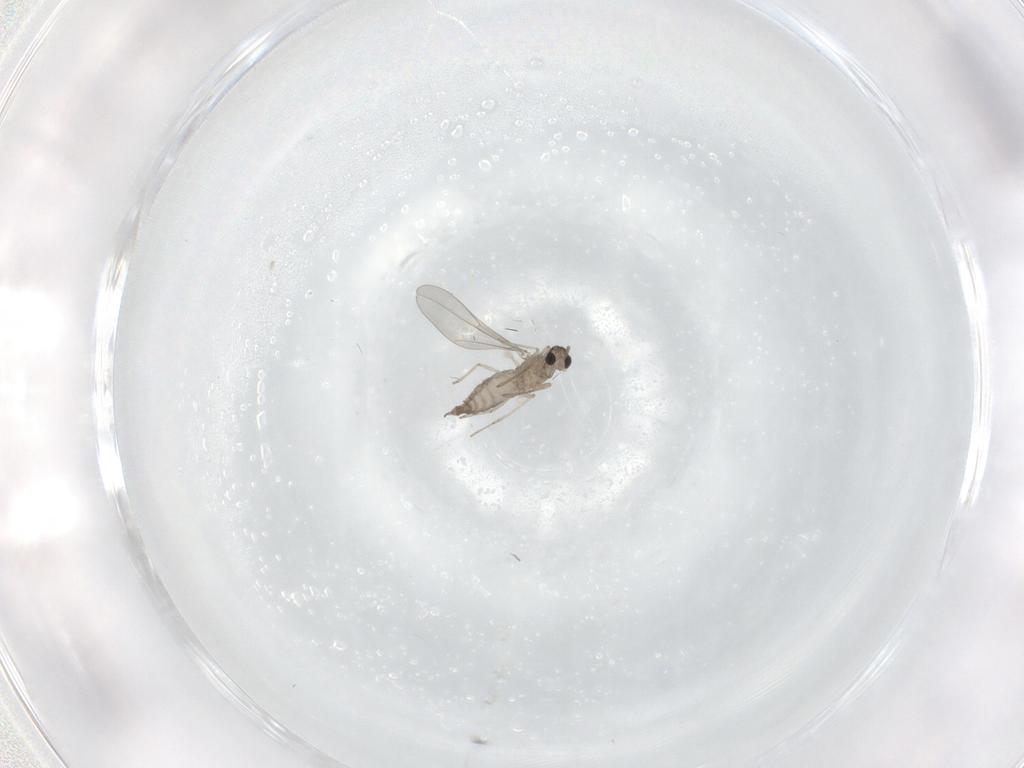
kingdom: Animalia
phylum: Arthropoda
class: Insecta
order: Diptera
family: Cecidomyiidae
